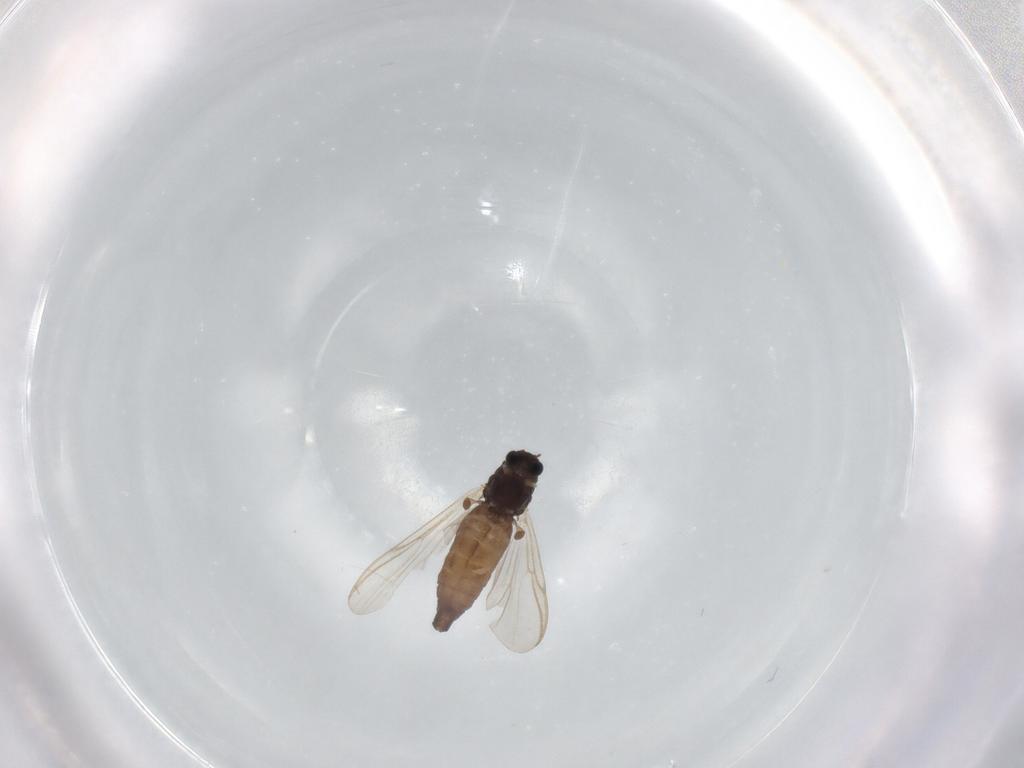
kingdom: Animalia
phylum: Arthropoda
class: Insecta
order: Diptera
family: Chironomidae
